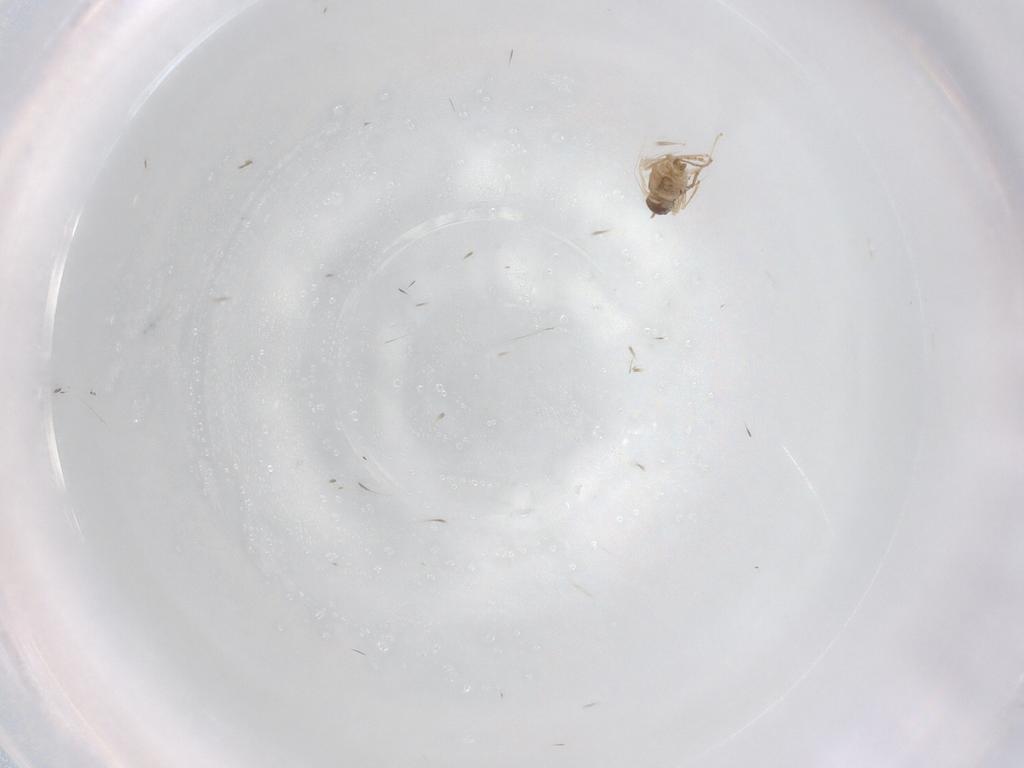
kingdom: Animalia
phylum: Arthropoda
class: Insecta
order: Diptera
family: Cecidomyiidae
